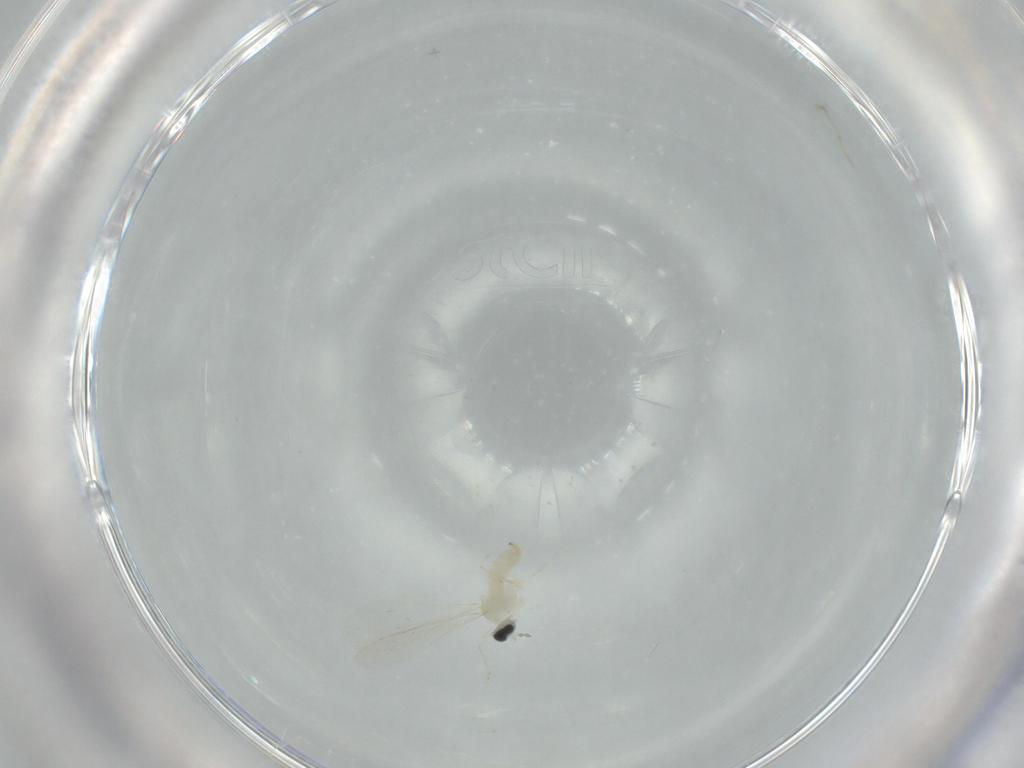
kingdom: Animalia
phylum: Arthropoda
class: Insecta
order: Diptera
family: Cecidomyiidae
